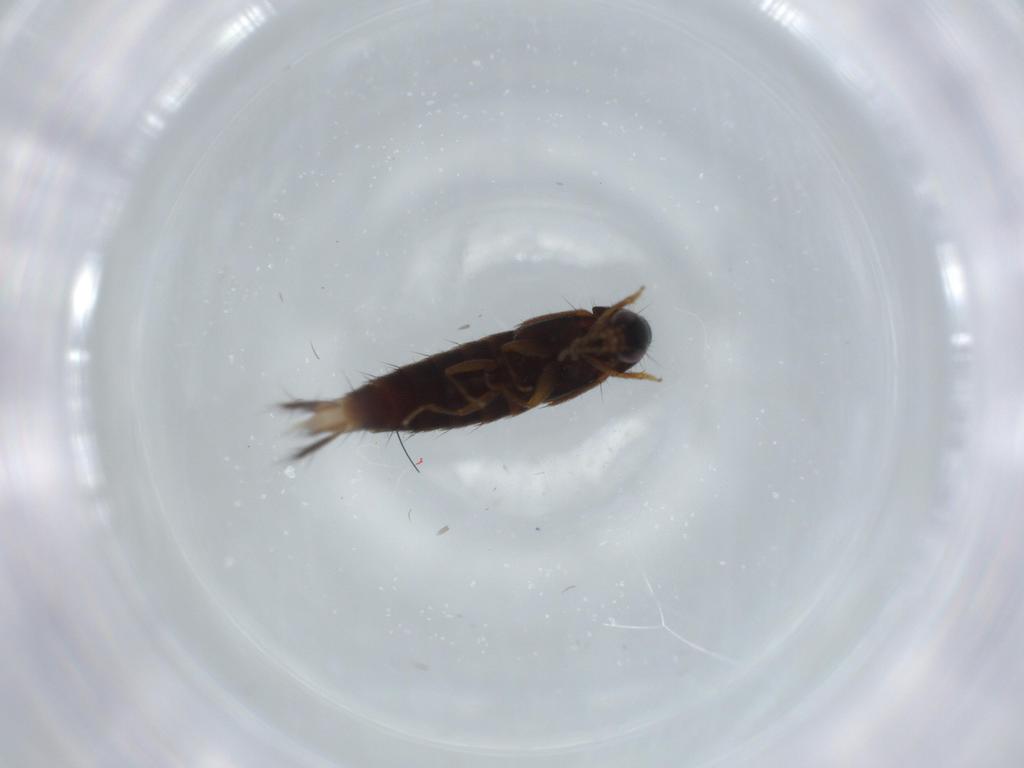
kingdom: Animalia
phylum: Arthropoda
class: Insecta
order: Coleoptera
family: Staphylinidae
